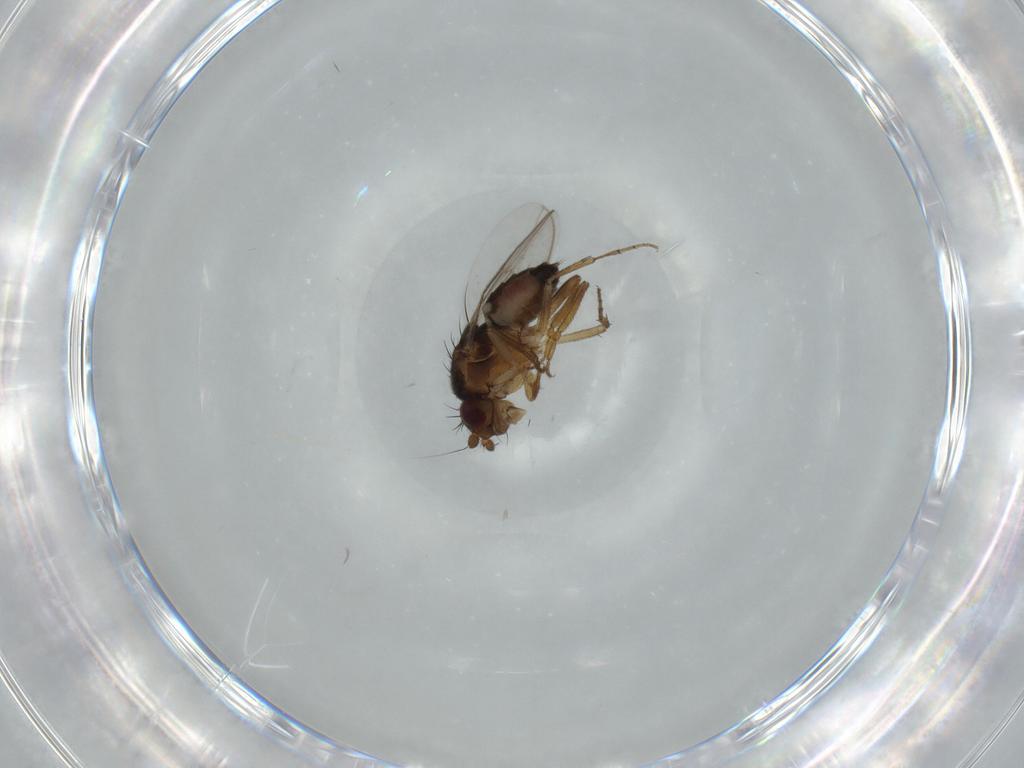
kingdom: Animalia
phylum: Arthropoda
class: Insecta
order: Diptera
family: Sphaeroceridae
